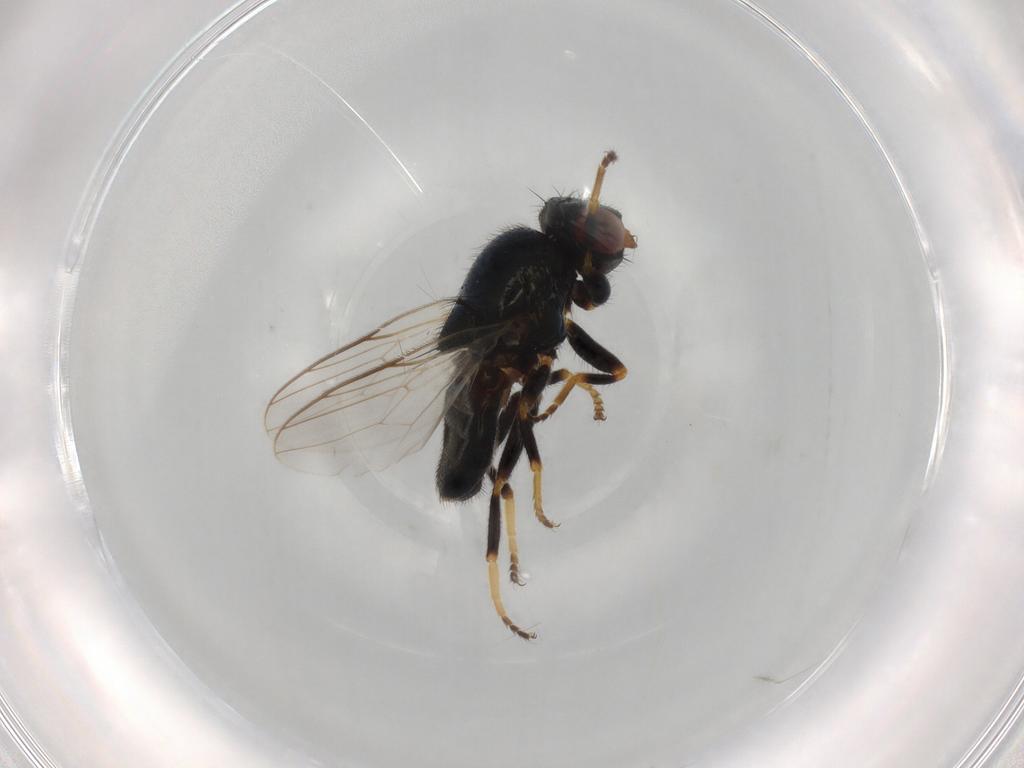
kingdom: Animalia
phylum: Arthropoda
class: Insecta
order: Diptera
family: Chloropidae
